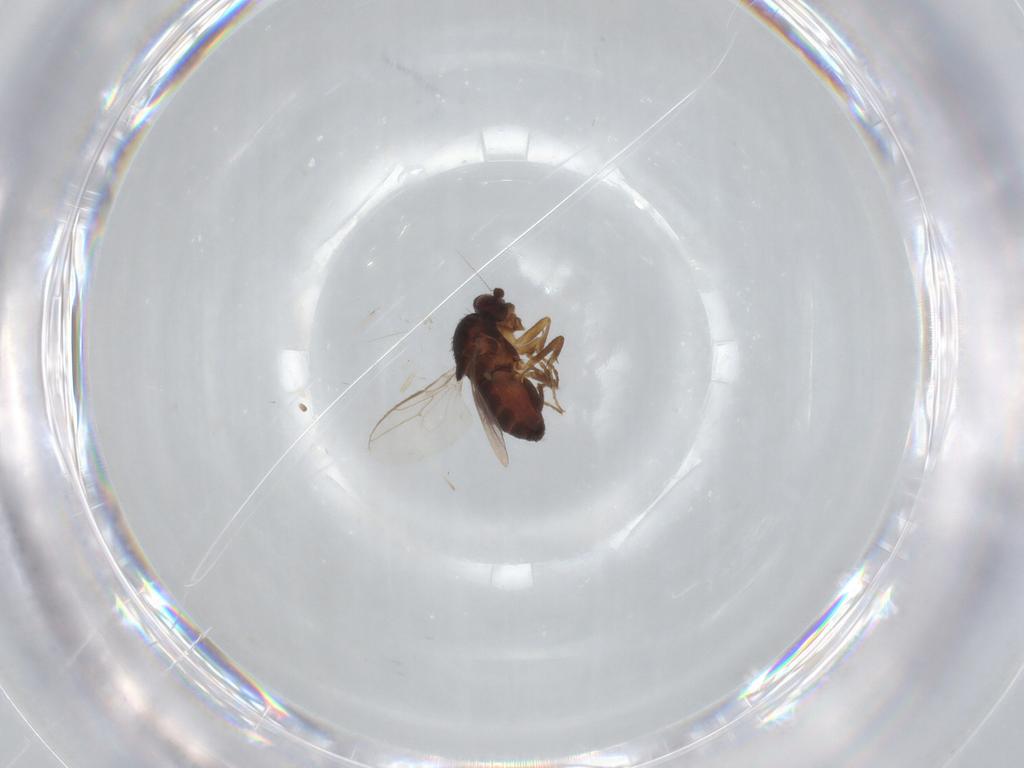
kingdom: Animalia
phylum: Arthropoda
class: Insecta
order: Diptera
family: Sphaeroceridae
